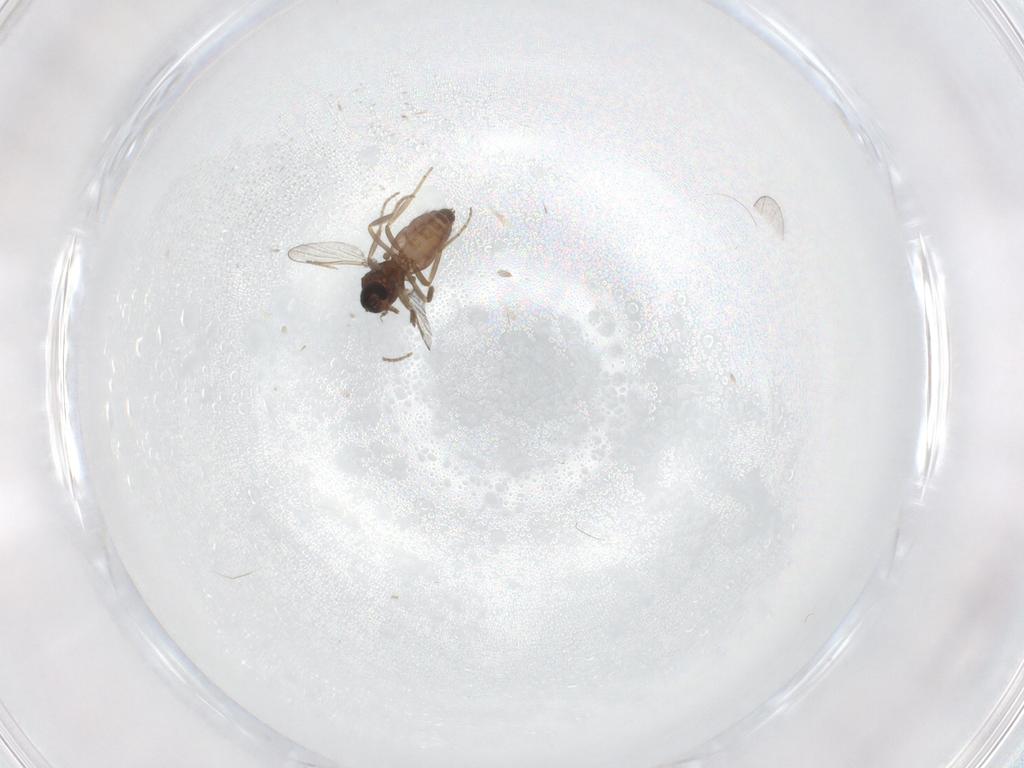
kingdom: Animalia
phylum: Arthropoda
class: Insecta
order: Diptera
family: Ceratopogonidae
